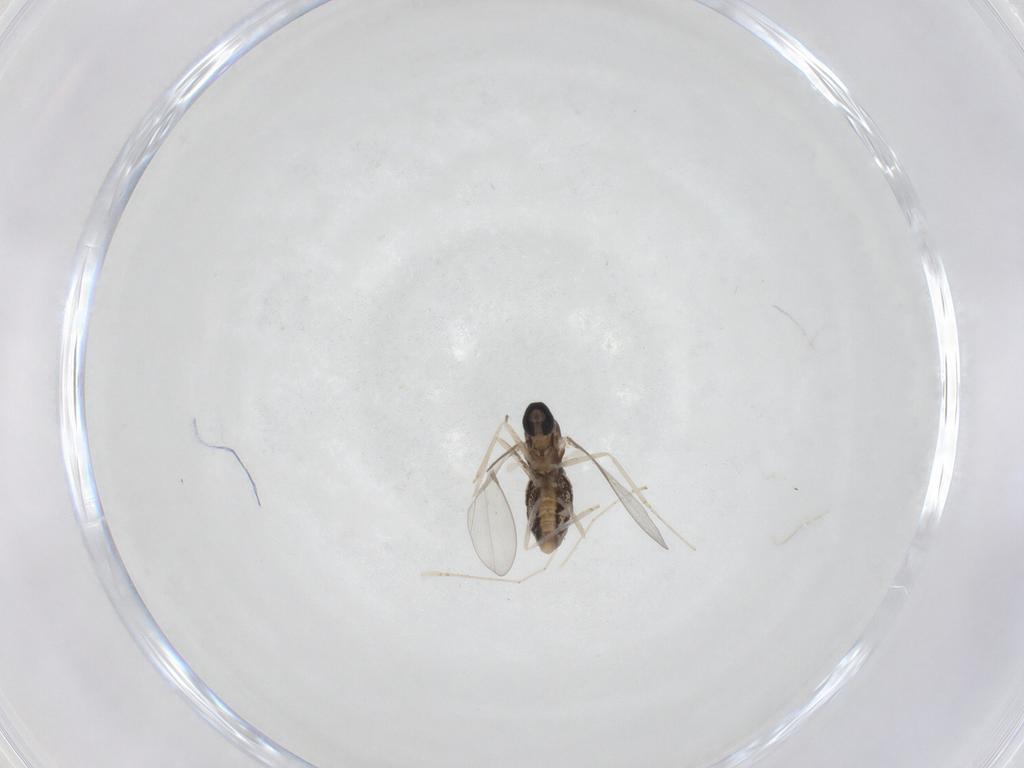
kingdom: Animalia
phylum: Arthropoda
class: Insecta
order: Diptera
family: Cecidomyiidae
